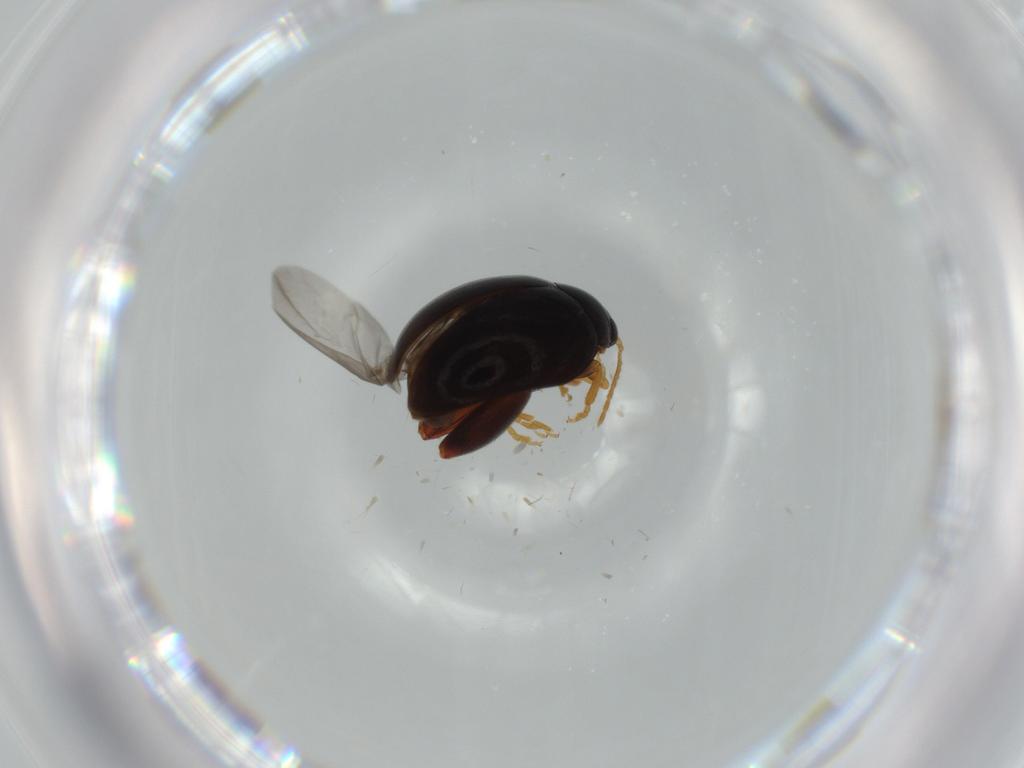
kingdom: Animalia
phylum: Arthropoda
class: Insecta
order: Coleoptera
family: Chrysomelidae
